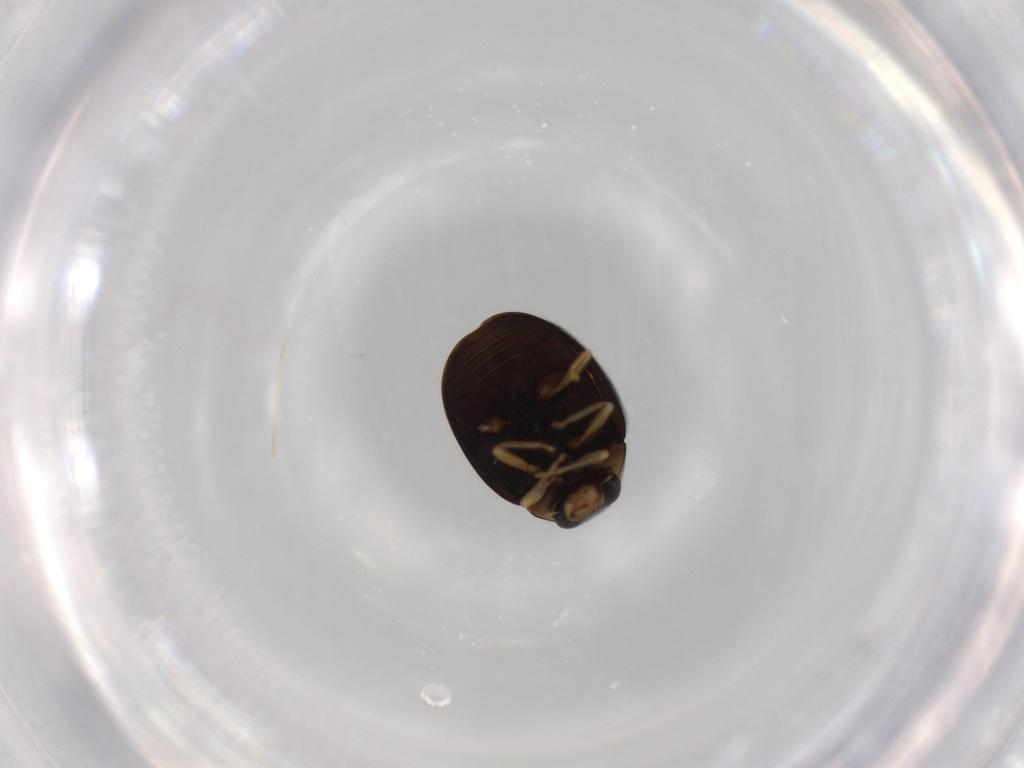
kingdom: Animalia
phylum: Arthropoda
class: Insecta
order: Coleoptera
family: Coccinellidae
